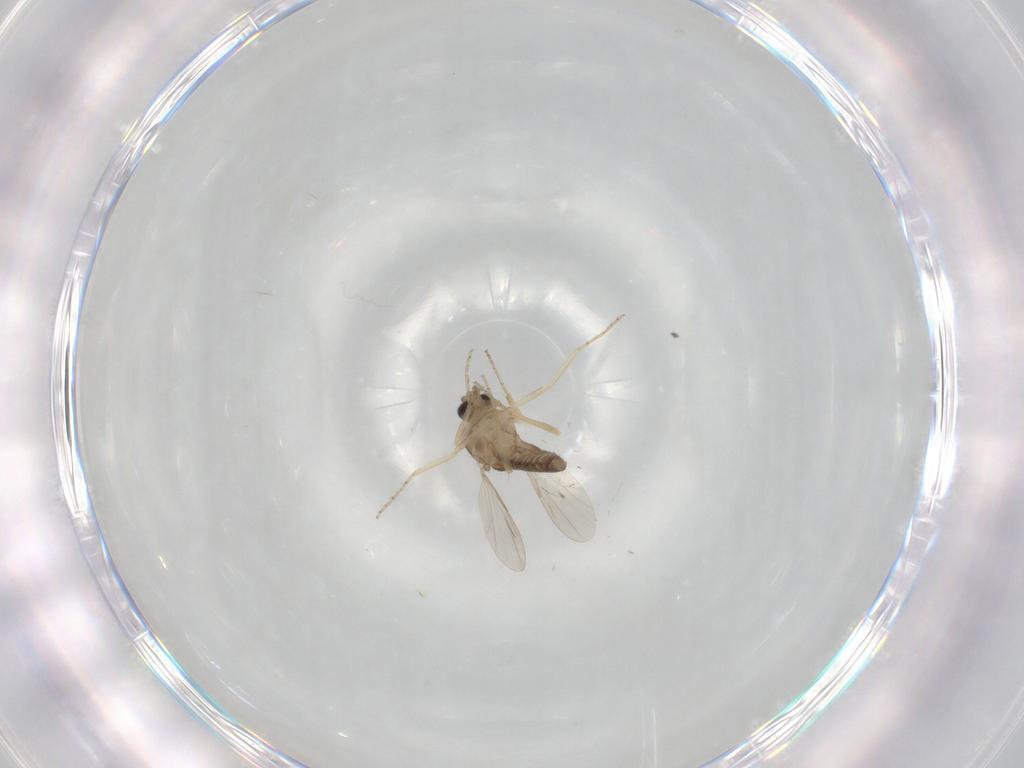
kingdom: Animalia
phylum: Arthropoda
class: Insecta
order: Diptera
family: Ceratopogonidae
